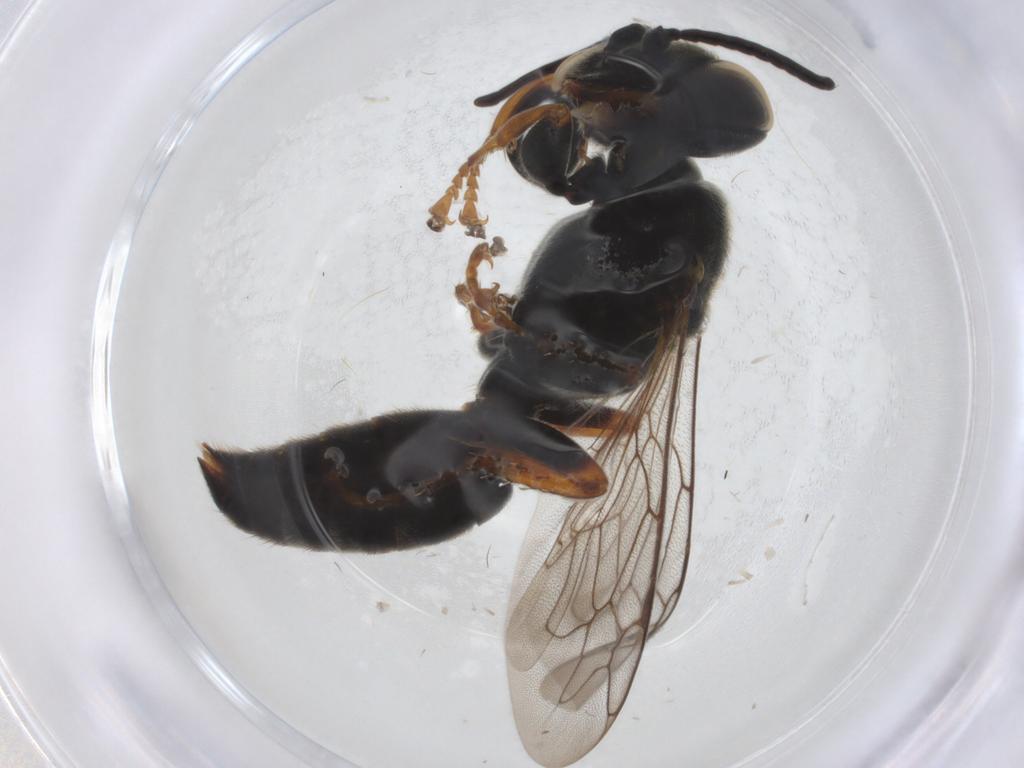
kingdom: Animalia
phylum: Arthropoda
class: Insecta
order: Hymenoptera
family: Crabronidae
